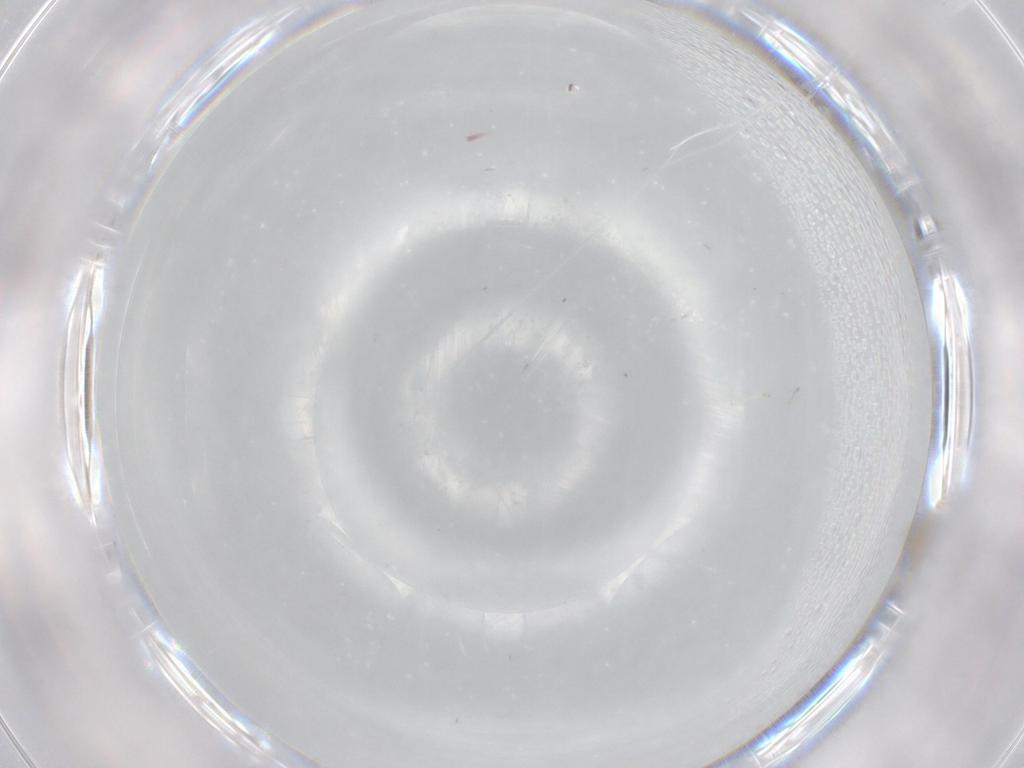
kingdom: Animalia
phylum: Arthropoda
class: Insecta
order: Diptera
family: Cecidomyiidae
